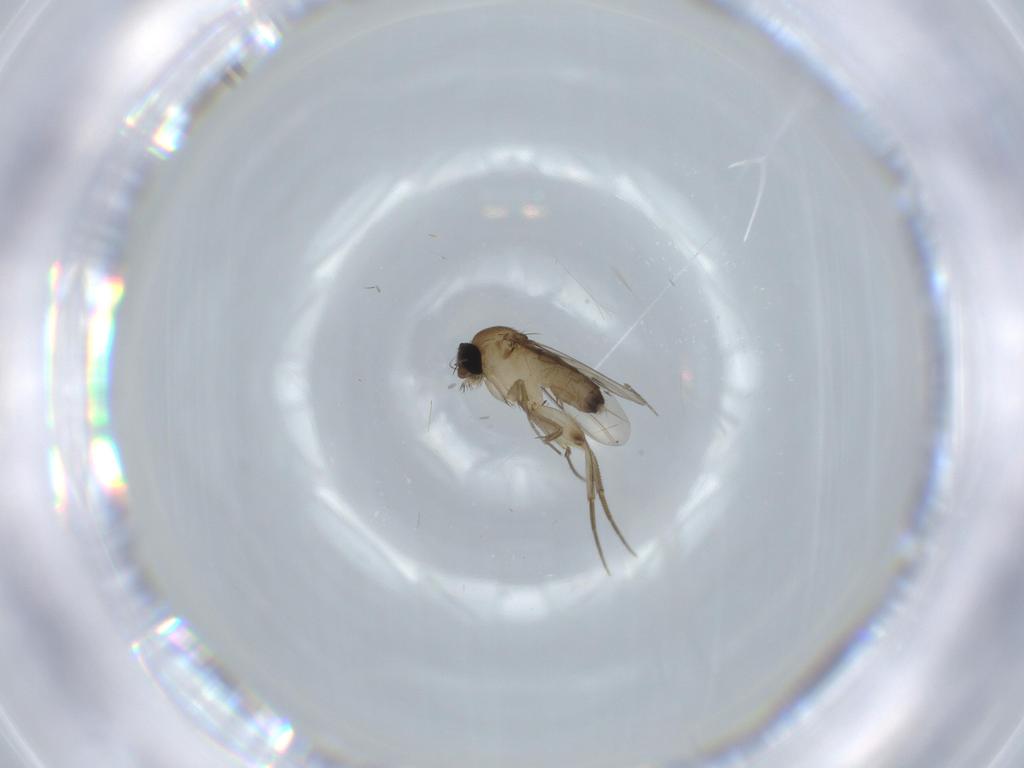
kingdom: Animalia
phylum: Arthropoda
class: Insecta
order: Diptera
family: Phoridae
